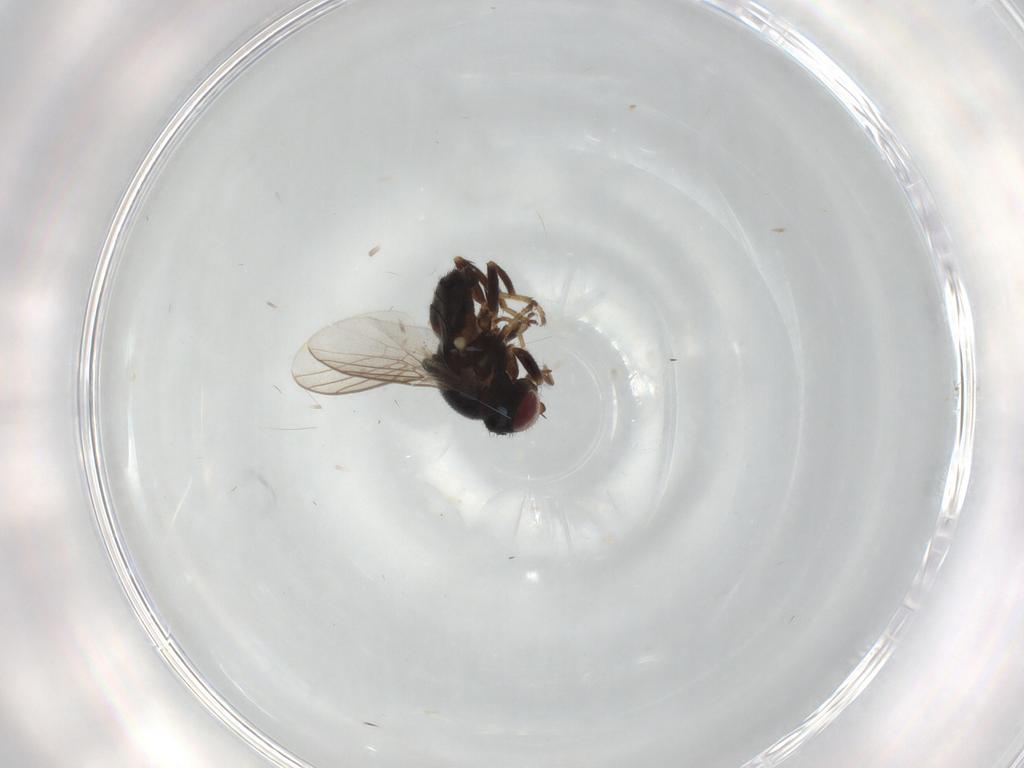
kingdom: Animalia
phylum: Arthropoda
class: Insecta
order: Diptera
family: Chloropidae
